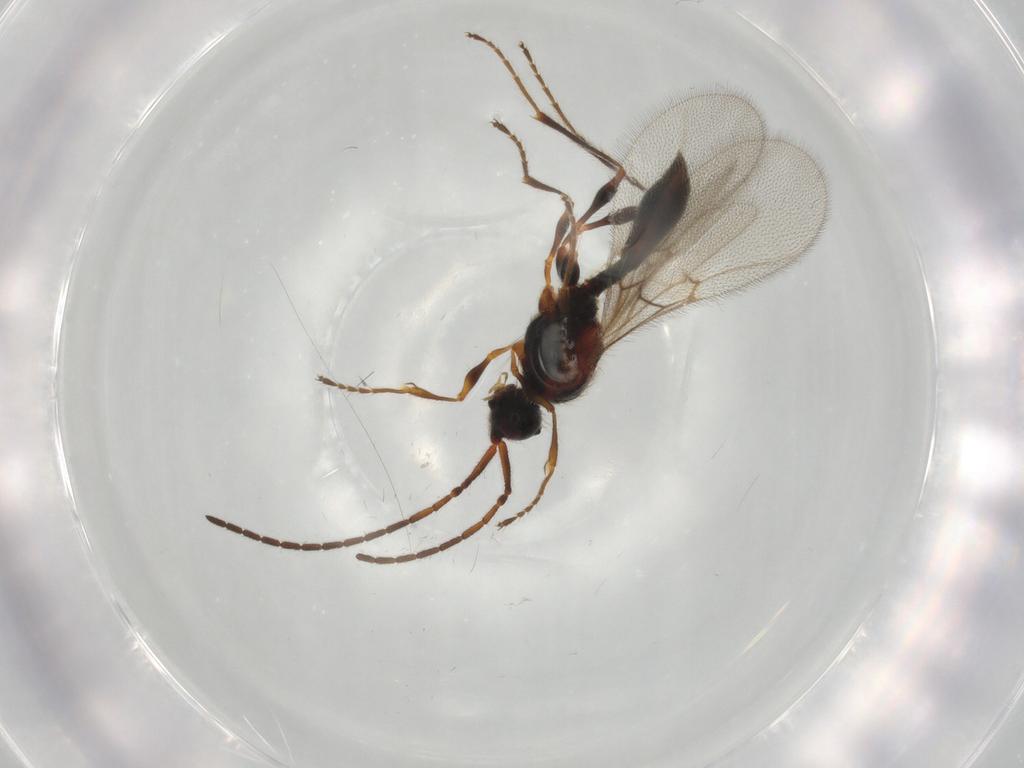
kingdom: Animalia
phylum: Arthropoda
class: Insecta
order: Hymenoptera
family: Diapriidae
